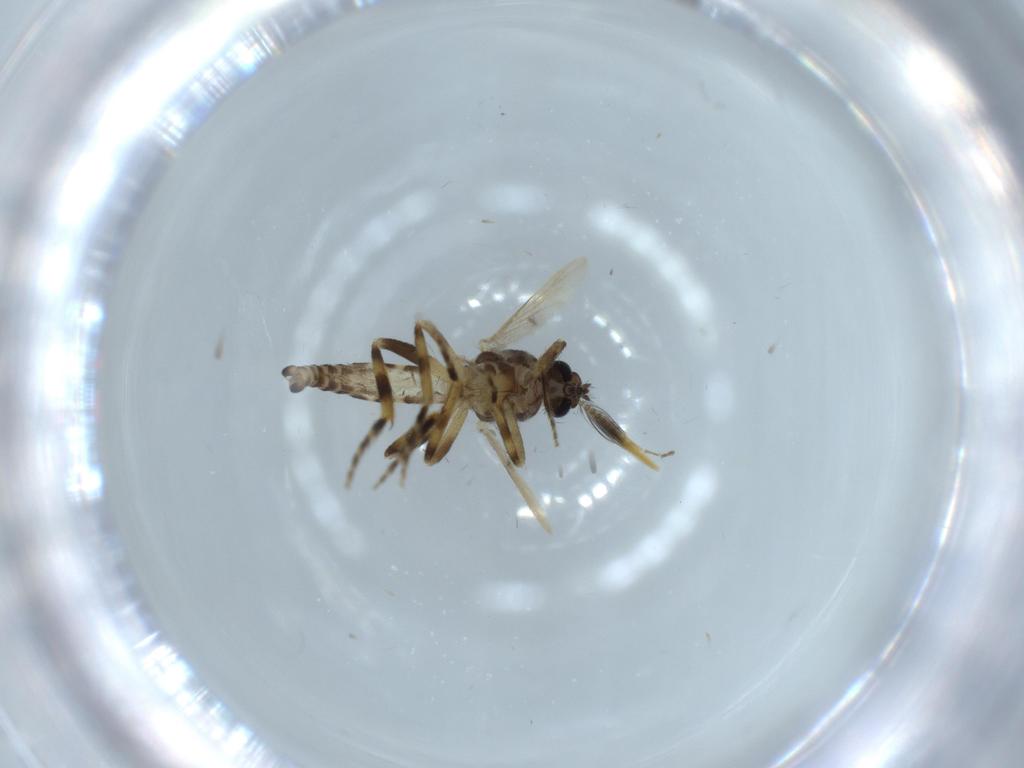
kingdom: Animalia
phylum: Arthropoda
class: Insecta
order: Diptera
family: Ceratopogonidae
